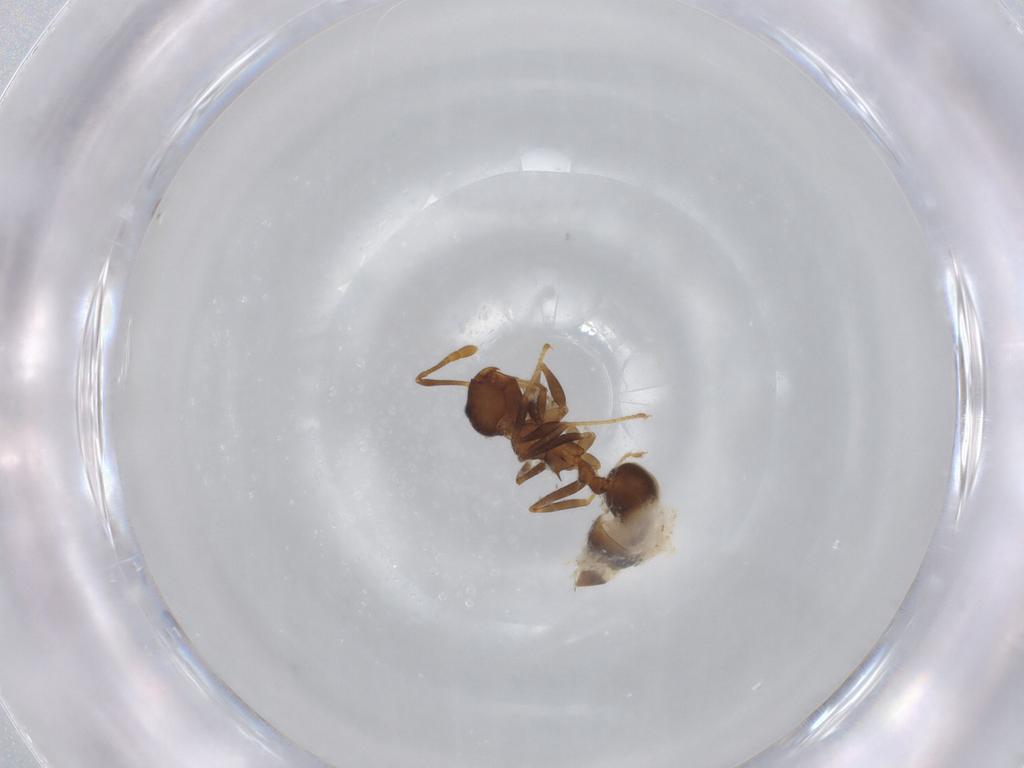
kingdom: Animalia
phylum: Arthropoda
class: Insecta
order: Hymenoptera
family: Formicidae
